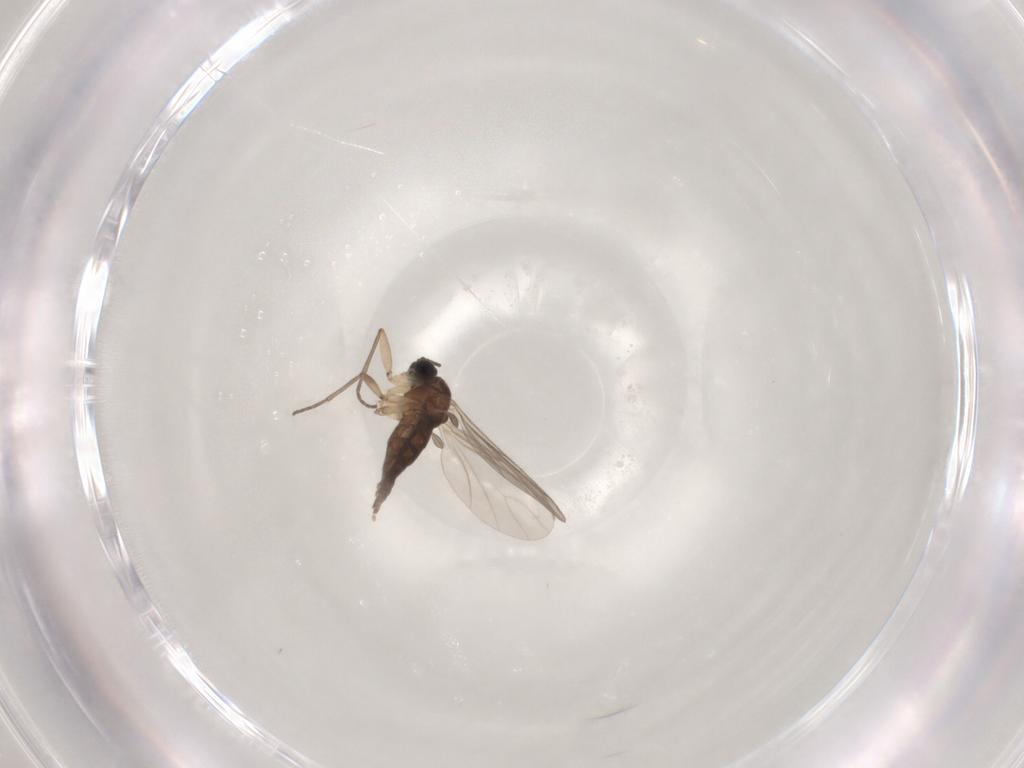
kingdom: Animalia
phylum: Arthropoda
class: Insecta
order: Diptera
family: Sciaridae
